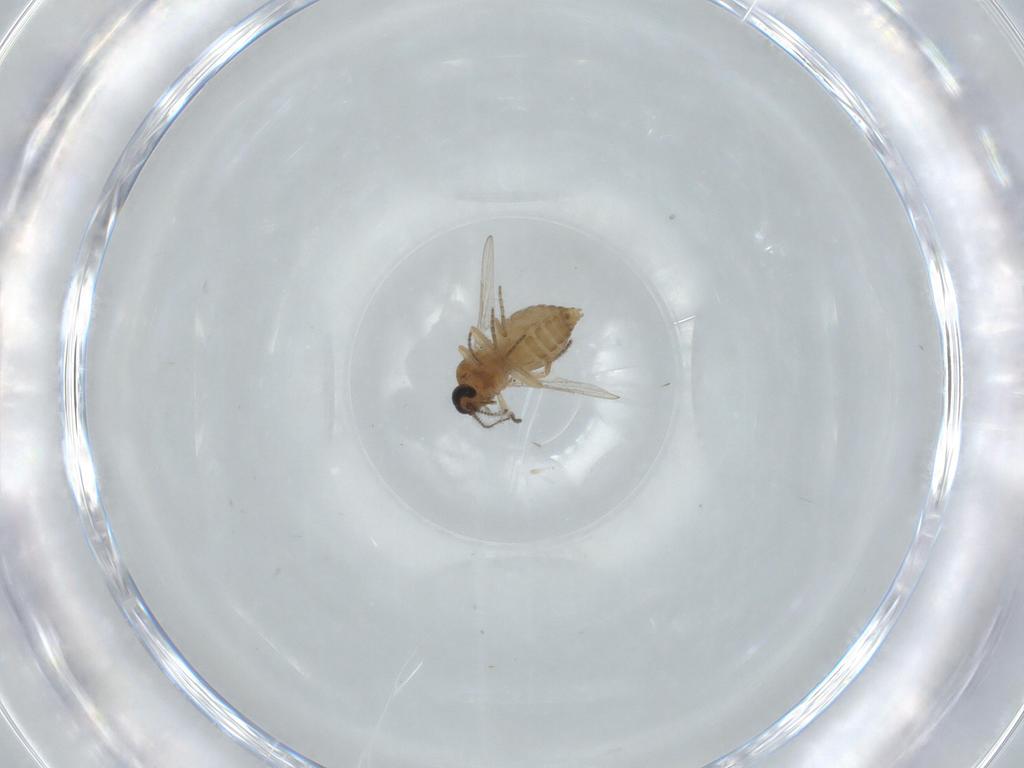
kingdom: Animalia
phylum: Arthropoda
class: Insecta
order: Diptera
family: Ceratopogonidae
